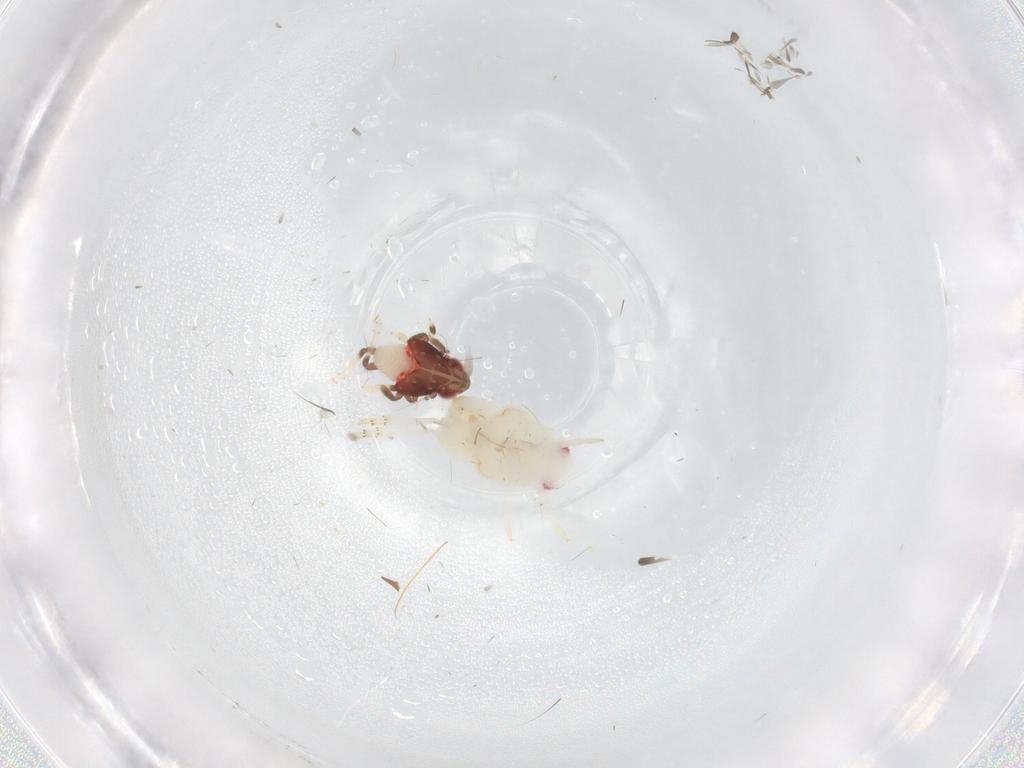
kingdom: Animalia
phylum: Arthropoda
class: Insecta
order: Hemiptera
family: Flatidae
